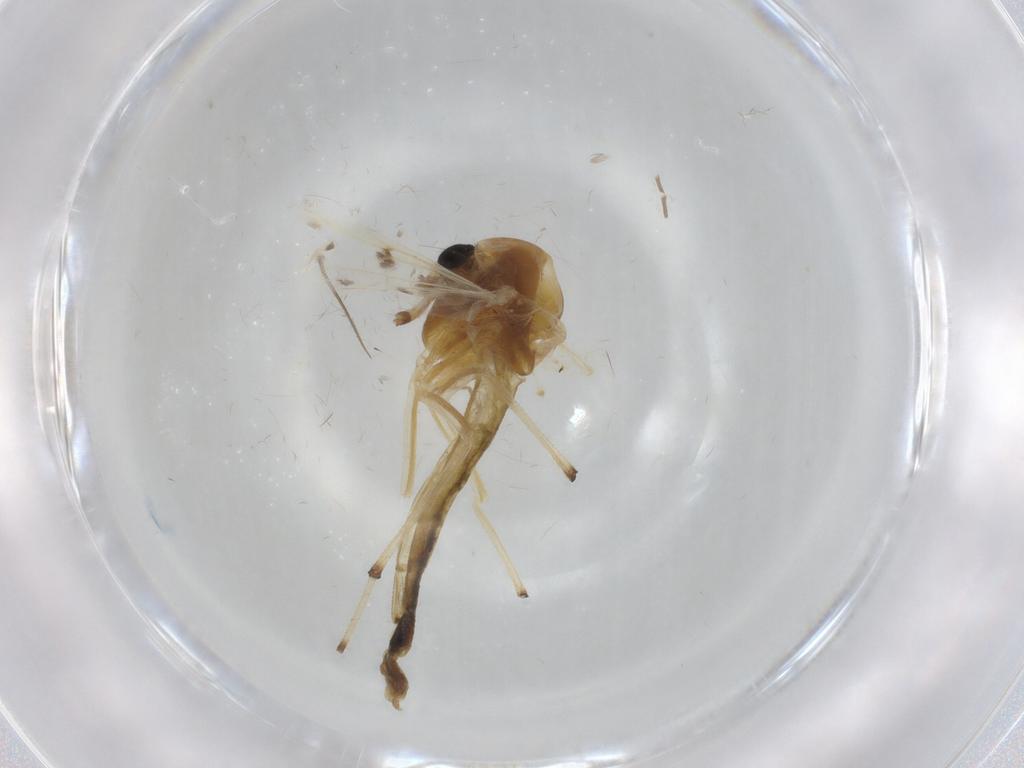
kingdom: Animalia
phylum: Arthropoda
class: Insecta
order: Diptera
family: Chironomidae
